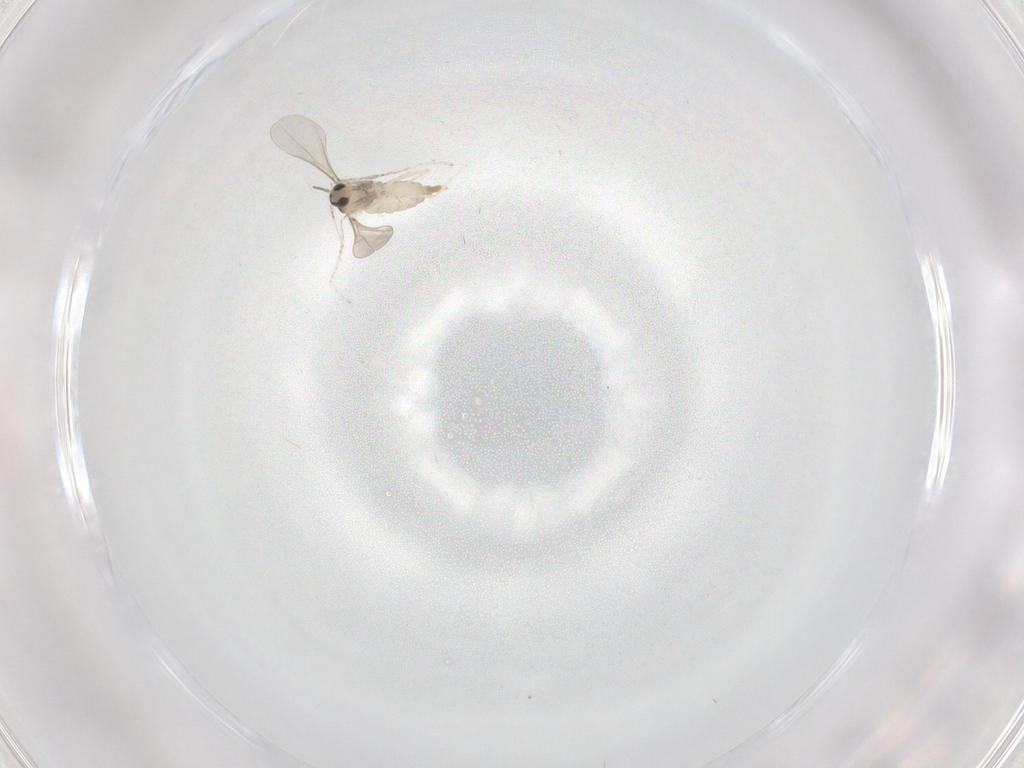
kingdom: Animalia
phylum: Arthropoda
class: Insecta
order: Diptera
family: Cecidomyiidae
